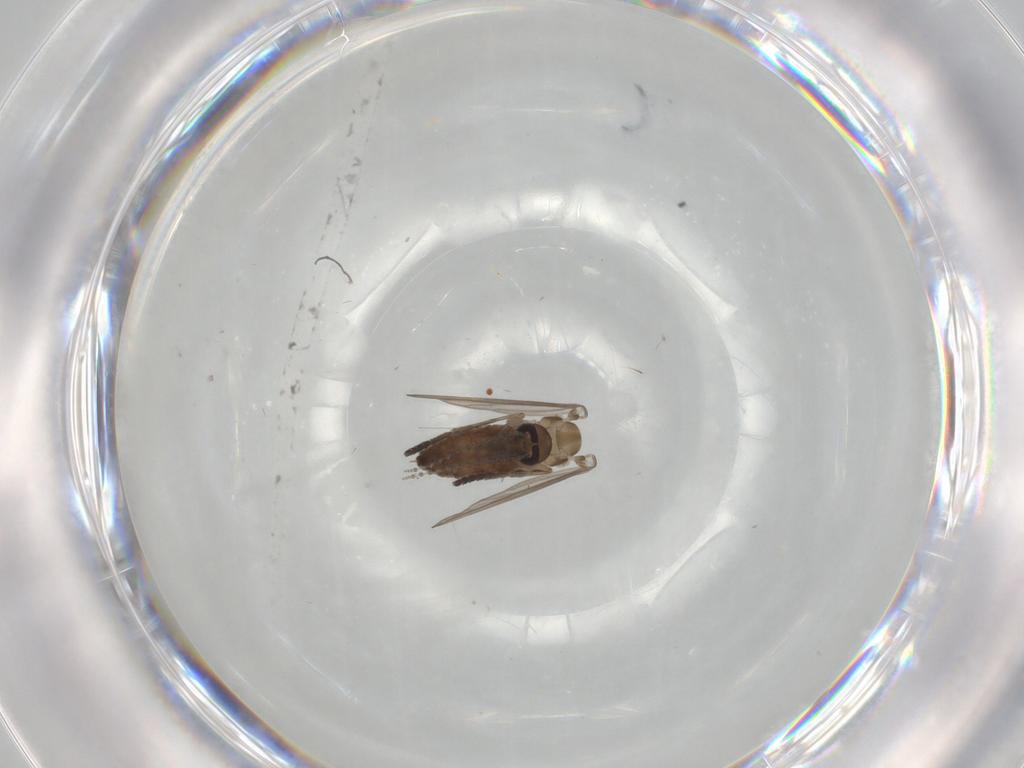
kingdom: Animalia
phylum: Arthropoda
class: Insecta
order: Diptera
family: Psychodidae
